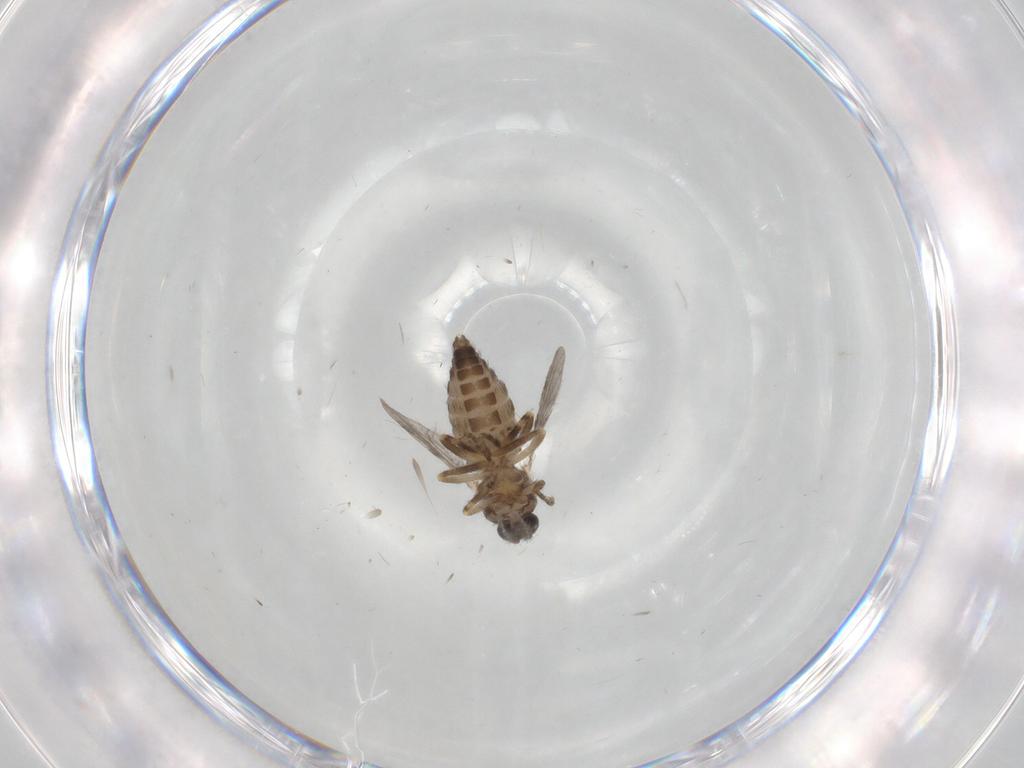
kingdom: Animalia
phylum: Arthropoda
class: Insecta
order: Diptera
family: Ceratopogonidae
